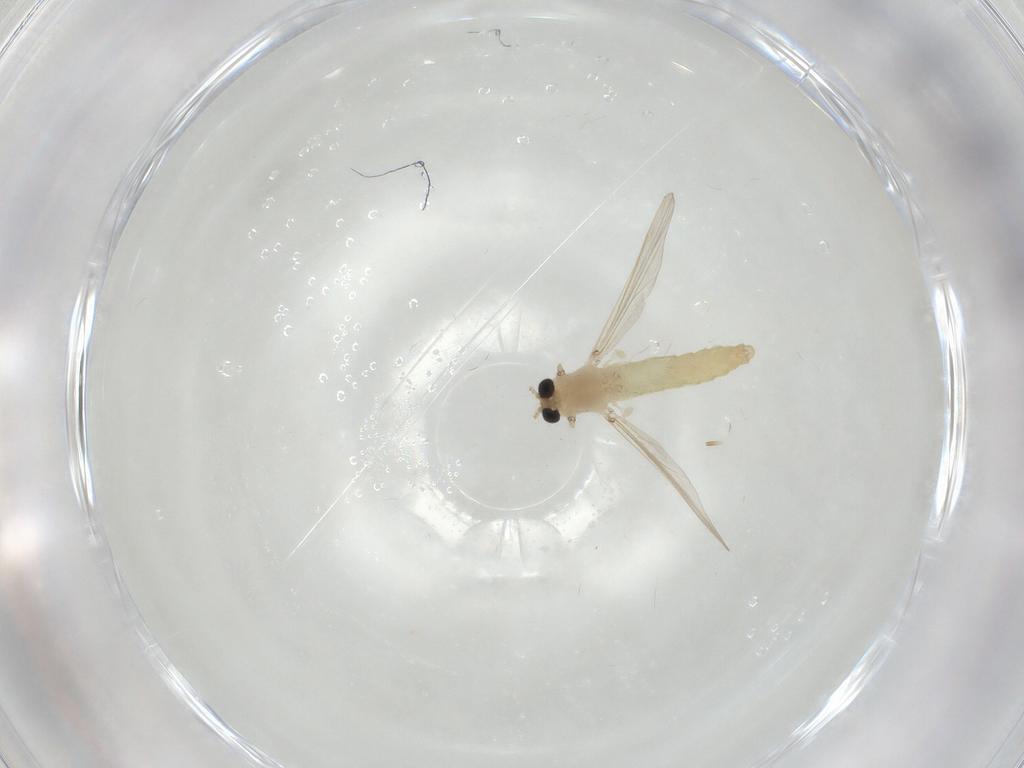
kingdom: Animalia
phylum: Arthropoda
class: Insecta
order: Diptera
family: Chironomidae
